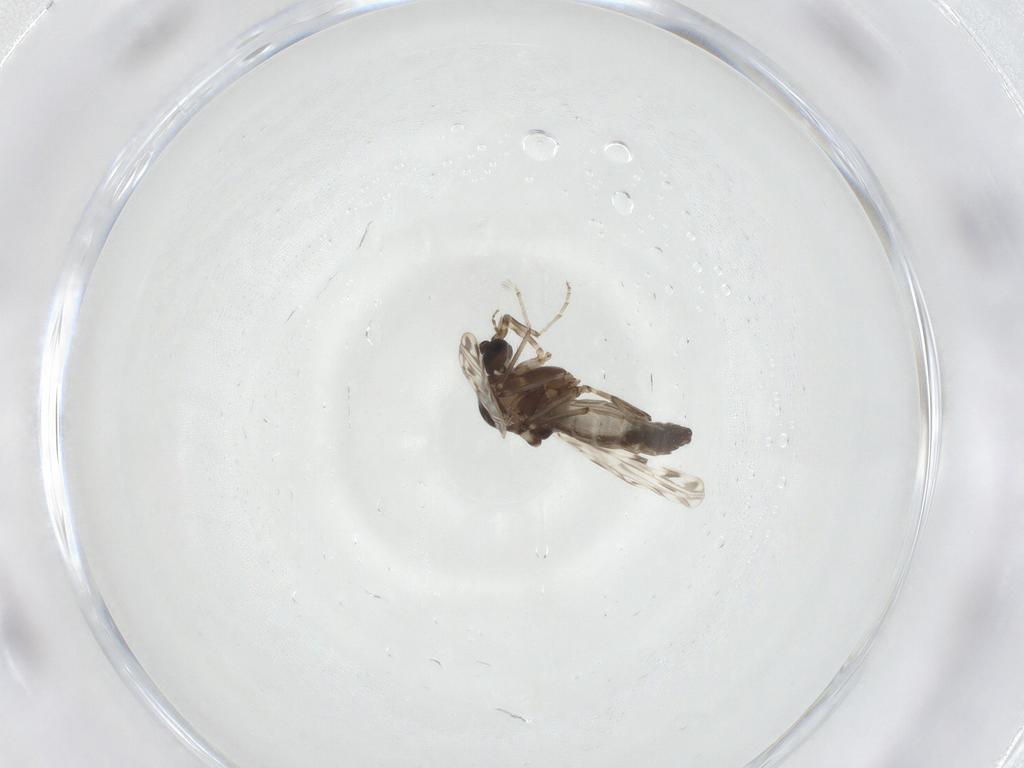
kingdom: Animalia
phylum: Arthropoda
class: Insecta
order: Diptera
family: Ceratopogonidae
